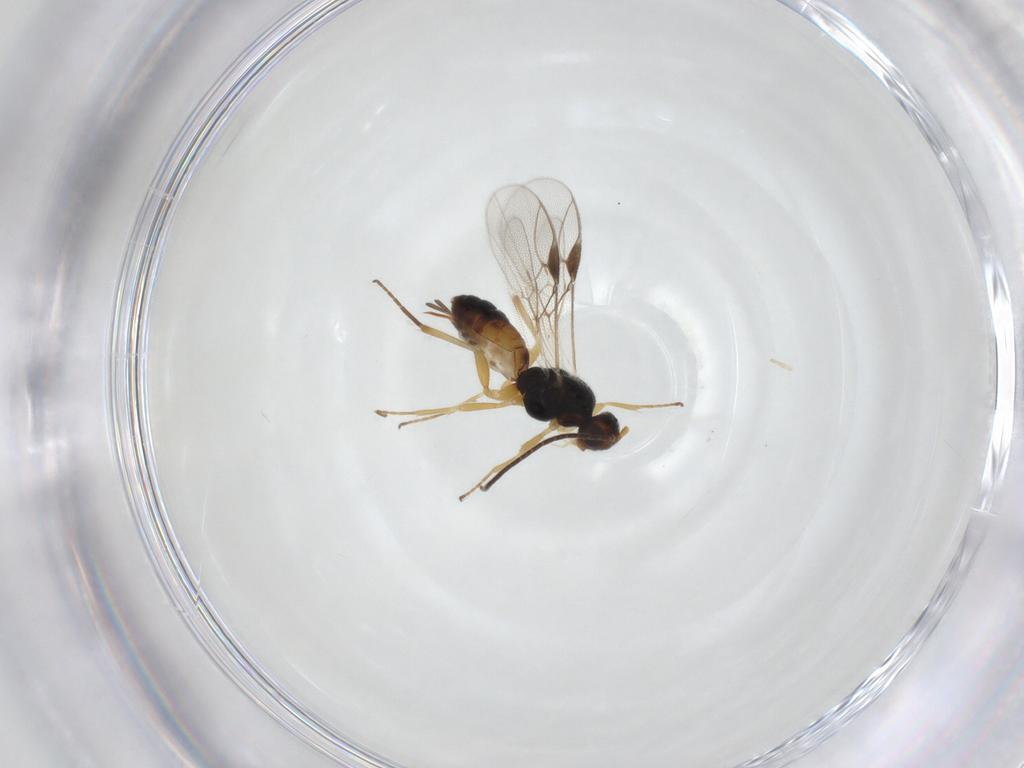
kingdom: Animalia
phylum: Arthropoda
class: Insecta
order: Hymenoptera
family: Braconidae
